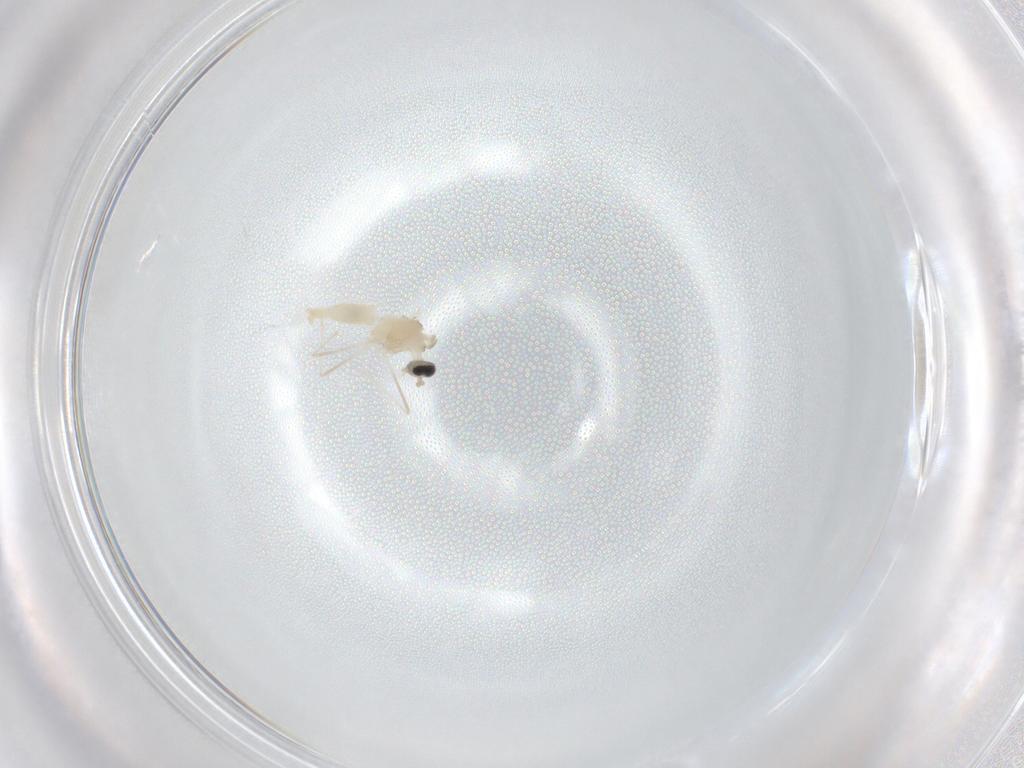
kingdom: Animalia
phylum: Arthropoda
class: Insecta
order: Diptera
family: Cecidomyiidae
